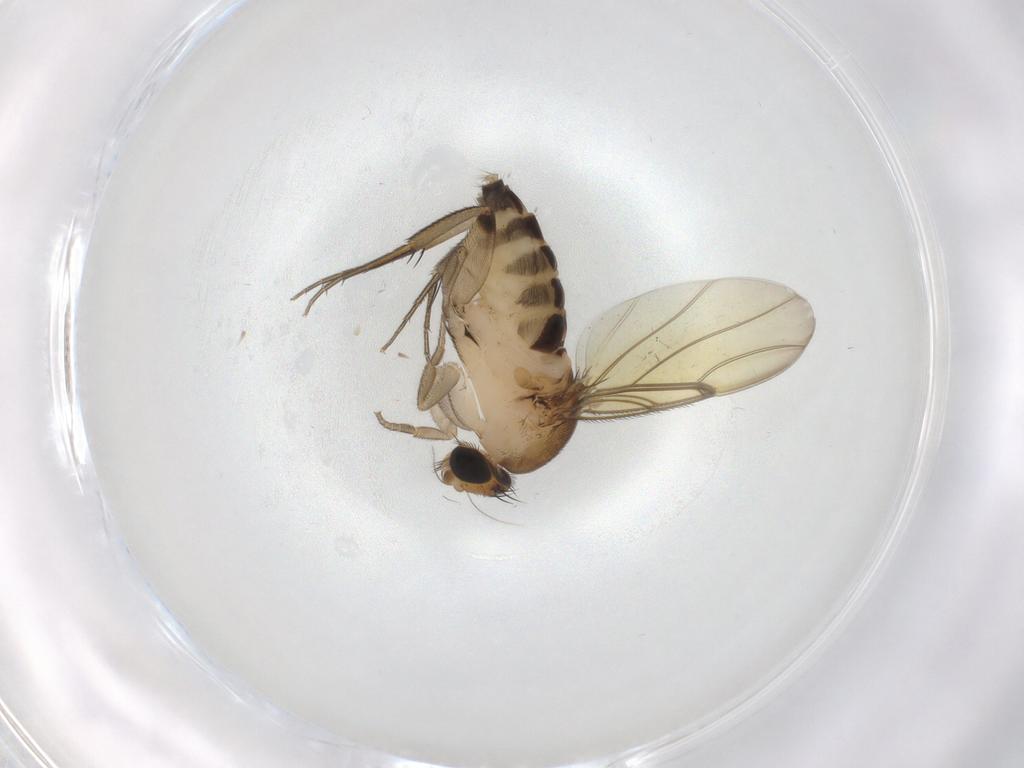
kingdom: Animalia
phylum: Arthropoda
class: Insecta
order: Diptera
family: Phoridae
